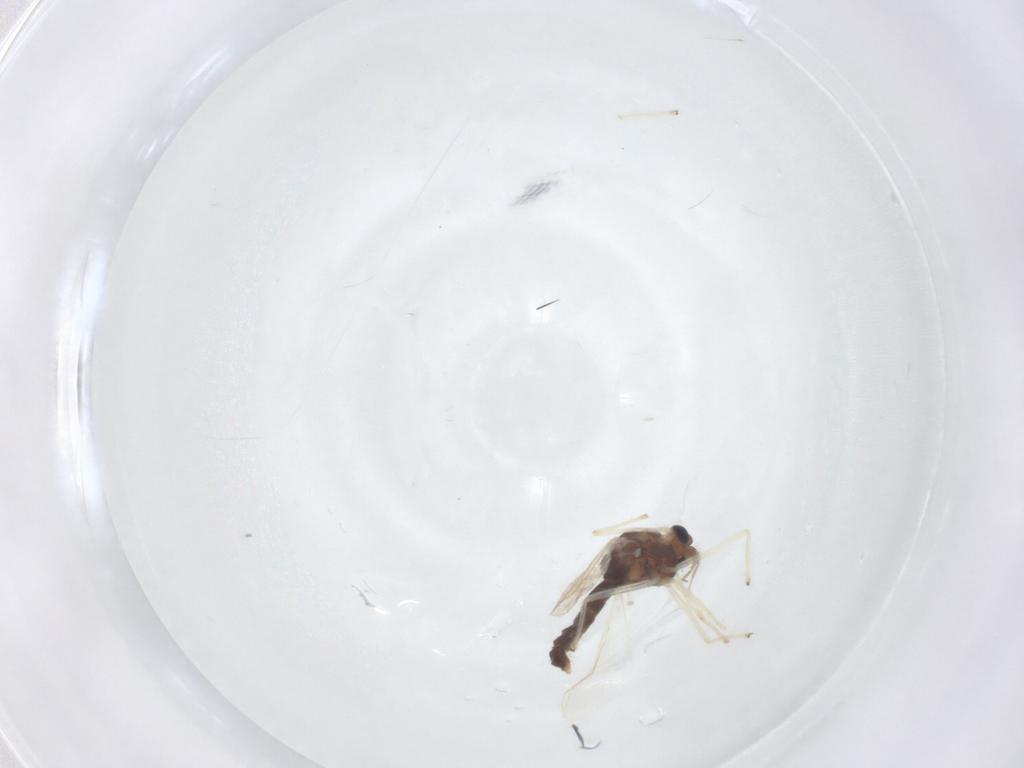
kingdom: Animalia
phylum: Arthropoda
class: Insecta
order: Diptera
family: Chironomidae
